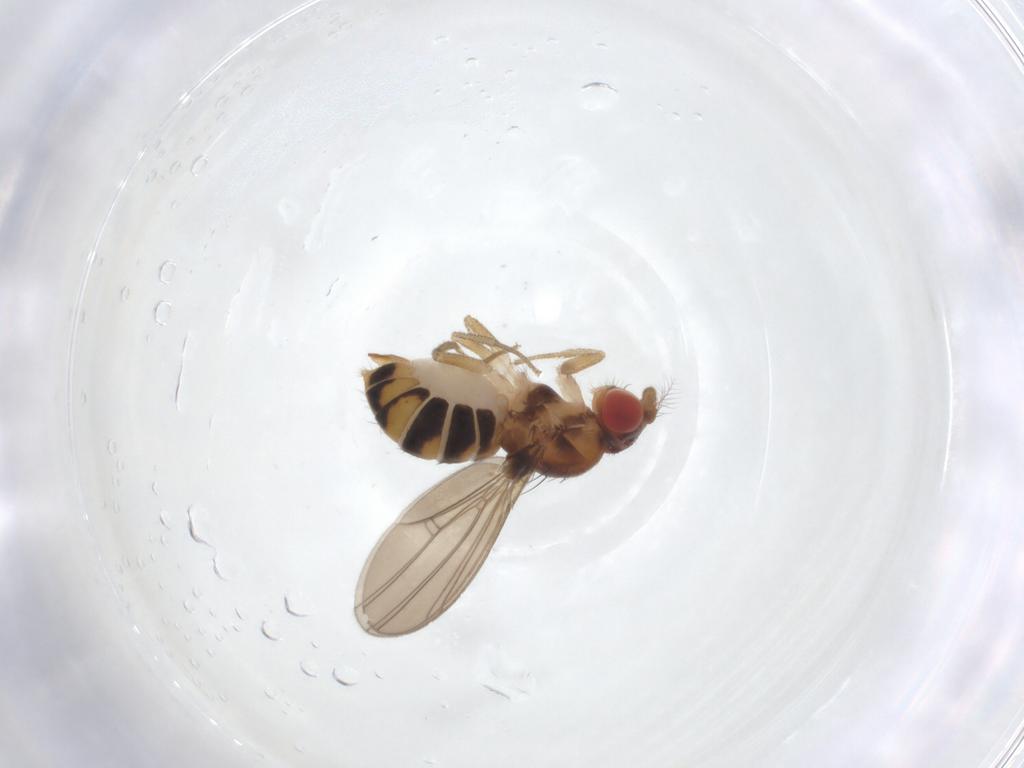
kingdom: Animalia
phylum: Arthropoda
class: Insecta
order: Diptera
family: Drosophilidae
